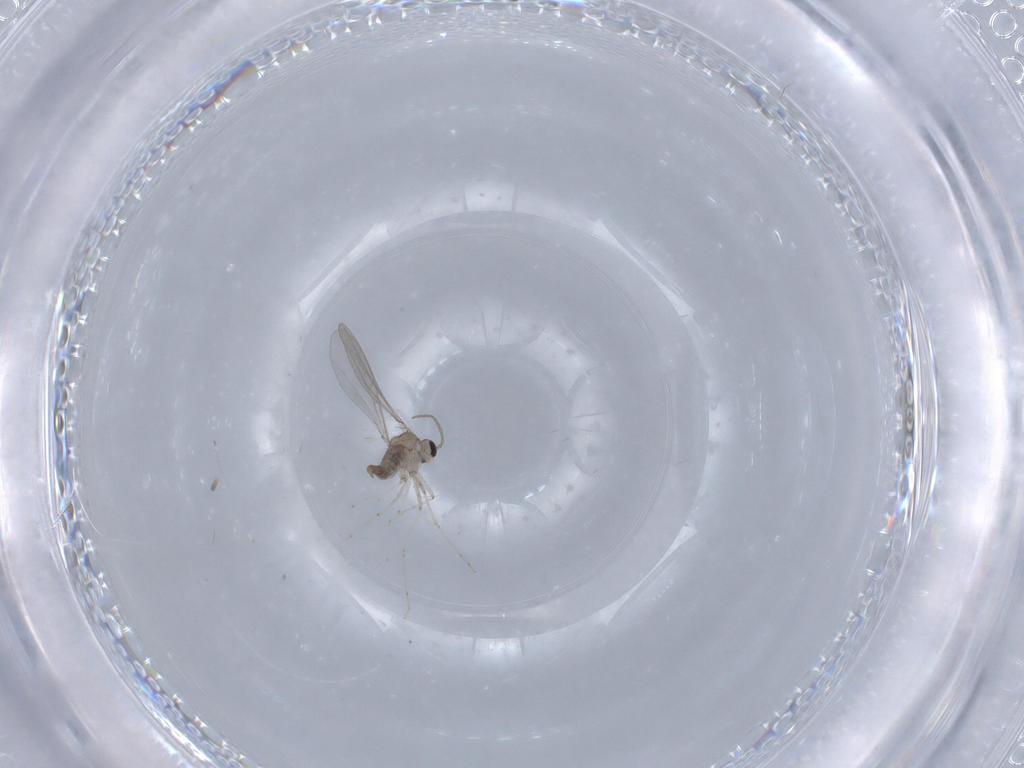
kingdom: Animalia
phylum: Arthropoda
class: Insecta
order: Diptera
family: Cecidomyiidae
